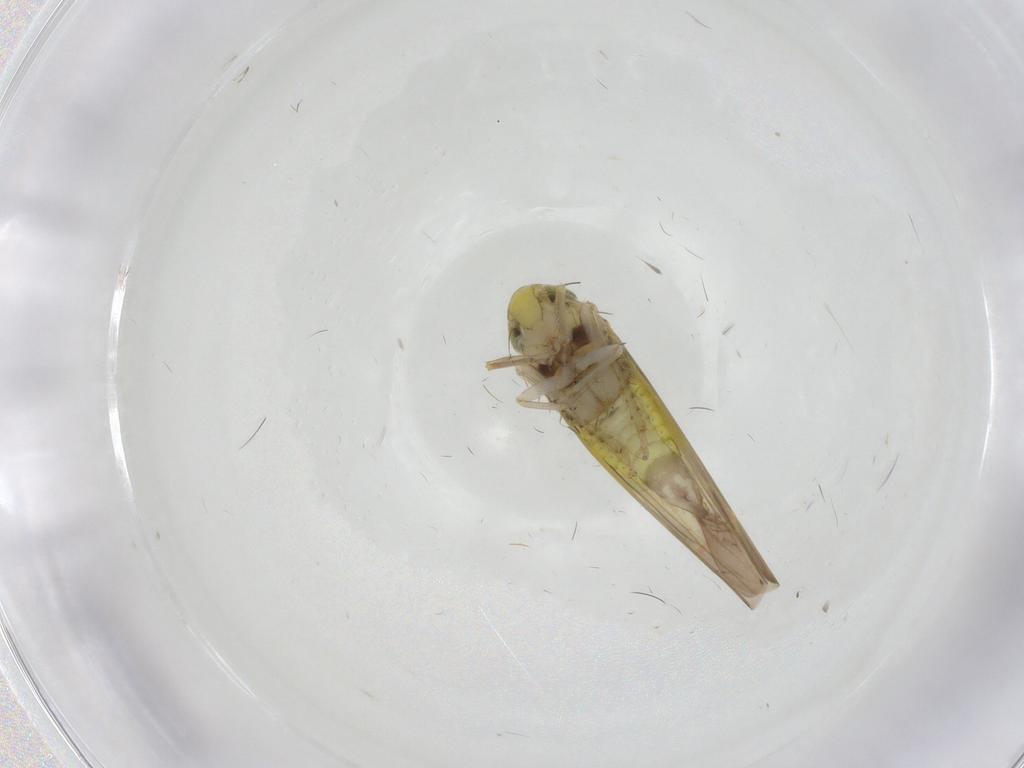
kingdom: Animalia
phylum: Arthropoda
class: Insecta
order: Hemiptera
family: Cicadellidae
